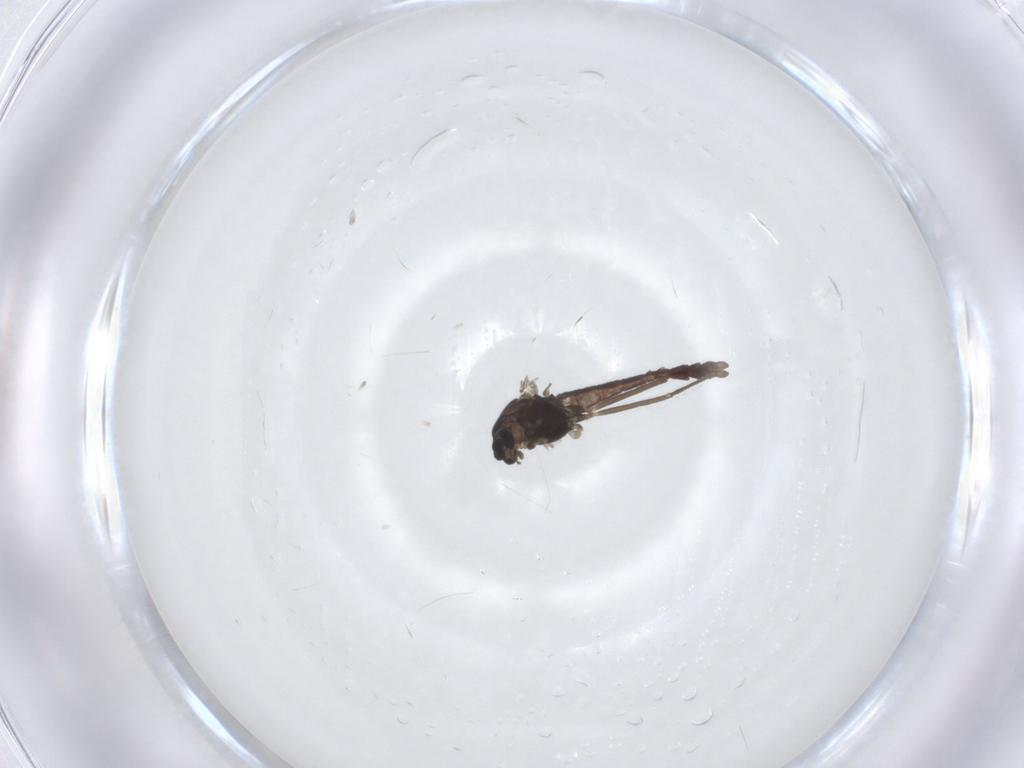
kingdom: Animalia
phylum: Arthropoda
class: Insecta
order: Diptera
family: Chironomidae
